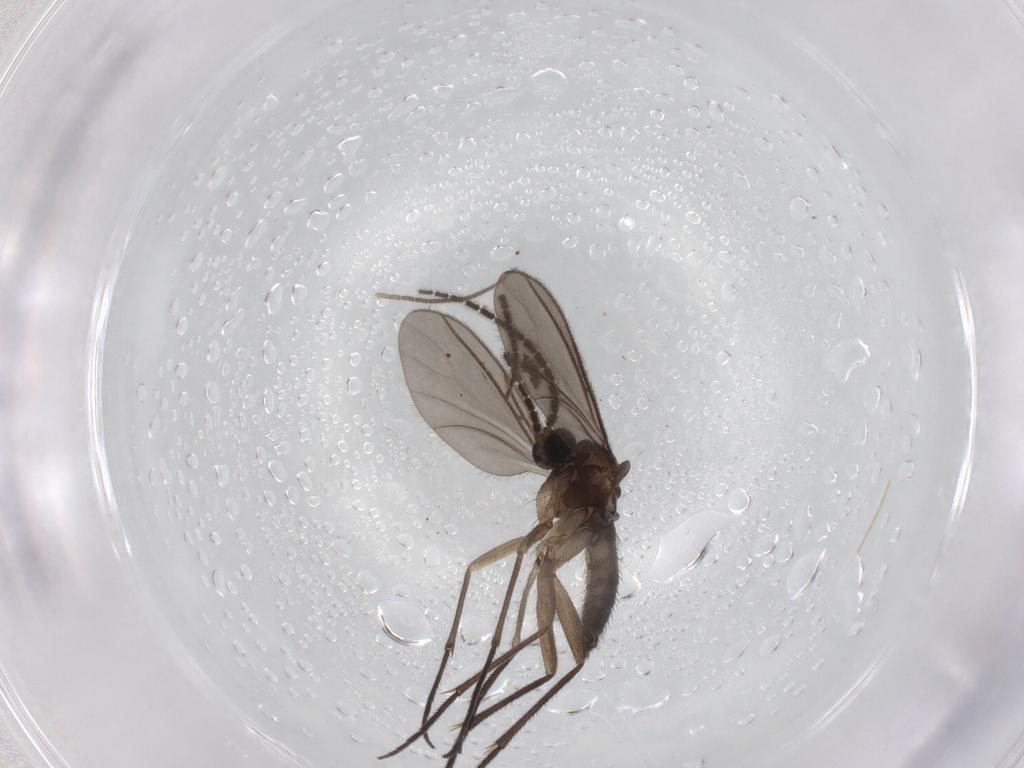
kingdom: Animalia
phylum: Arthropoda
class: Insecta
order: Diptera
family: Sciaridae
